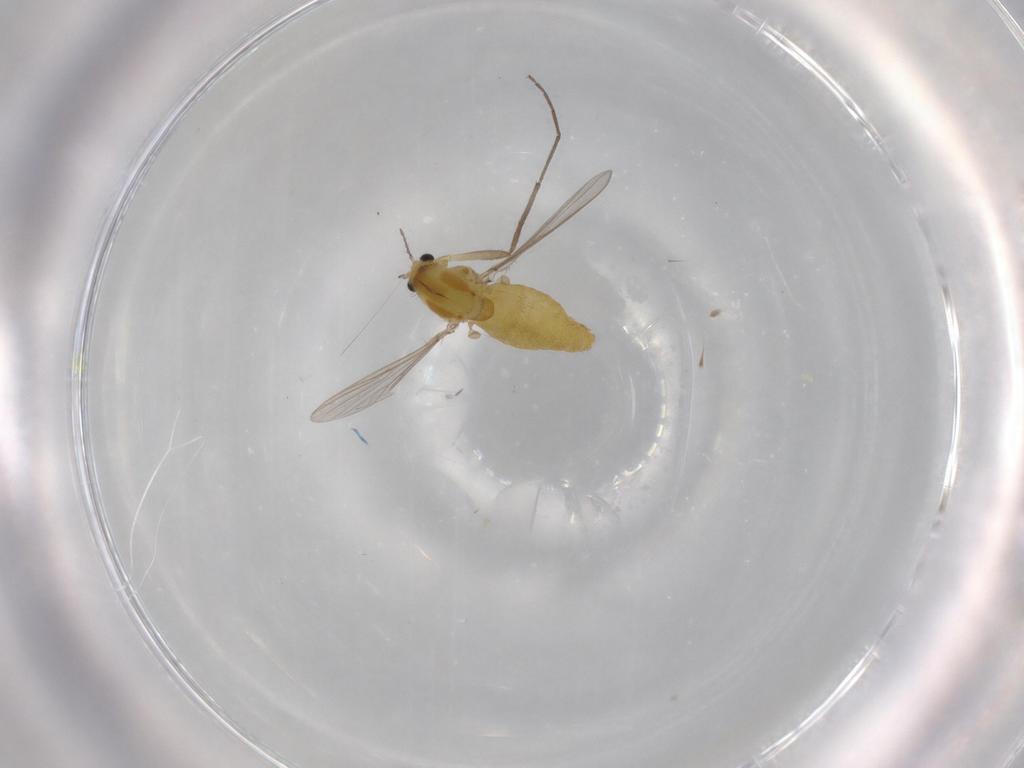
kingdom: Animalia
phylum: Arthropoda
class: Insecta
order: Diptera
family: Chironomidae
